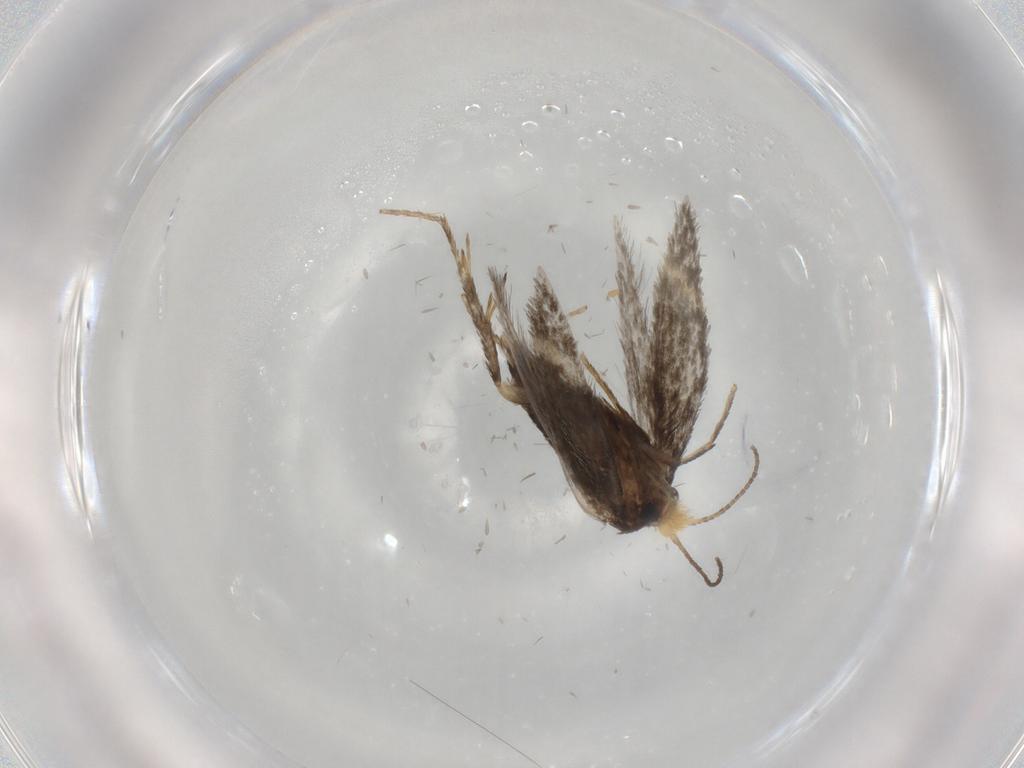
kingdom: Animalia
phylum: Arthropoda
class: Insecta
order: Lepidoptera
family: Nepticulidae
